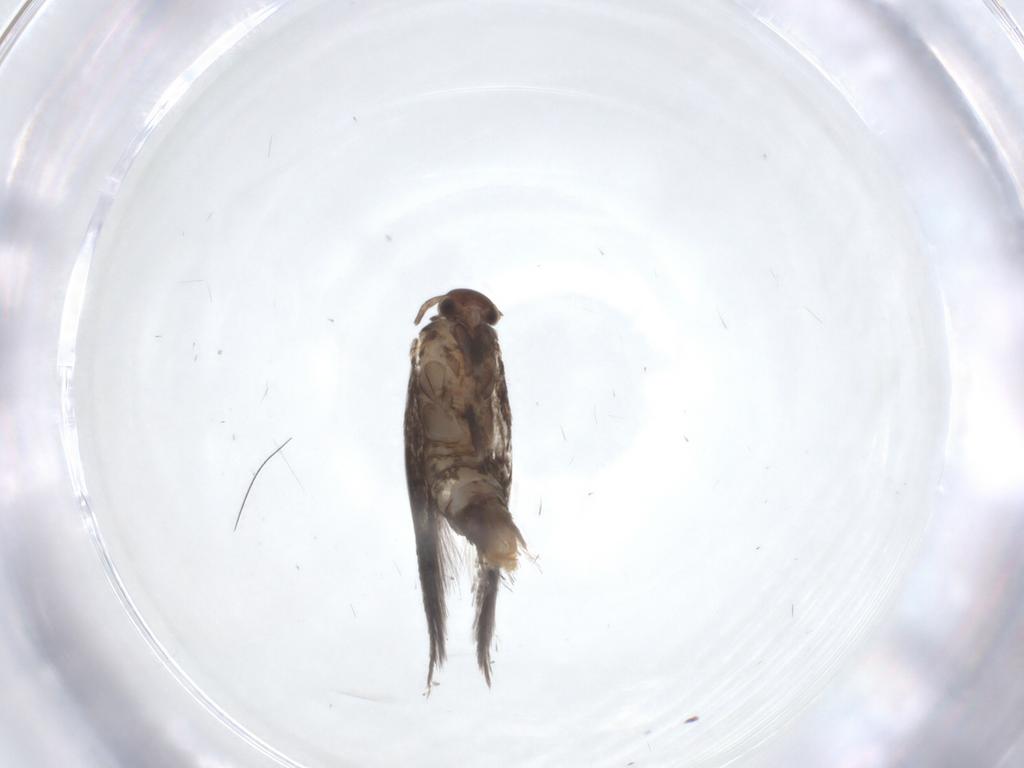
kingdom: Animalia
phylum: Arthropoda
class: Insecta
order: Lepidoptera
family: Elachistidae
